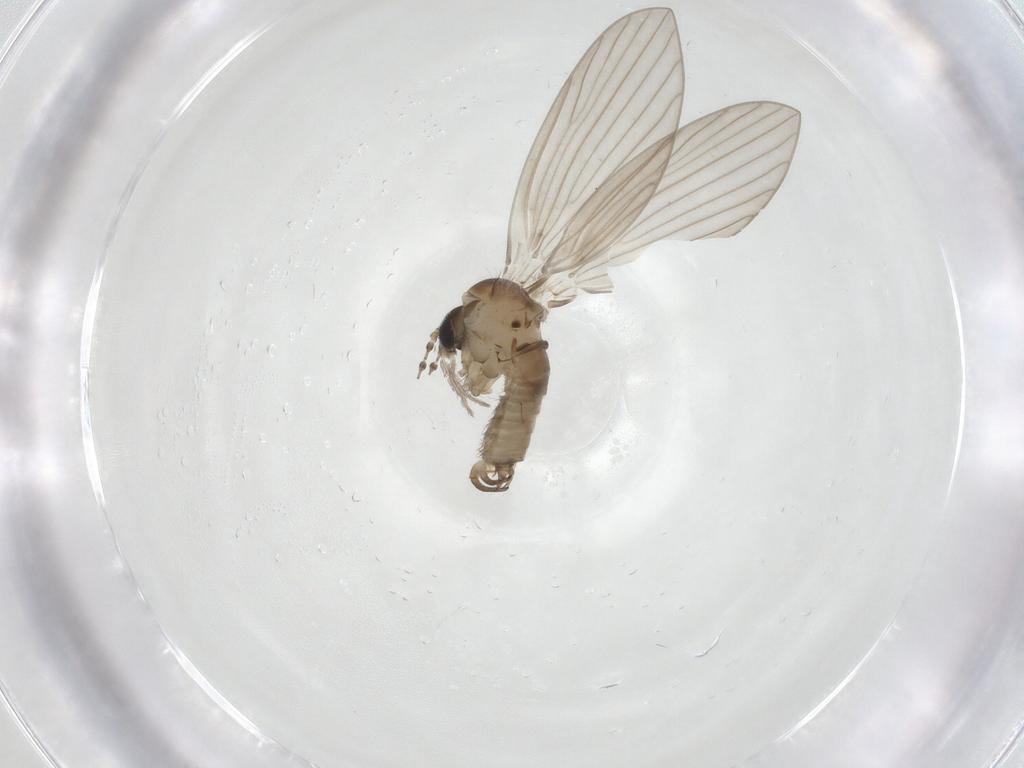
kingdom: Animalia
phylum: Arthropoda
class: Insecta
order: Diptera
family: Psychodidae
